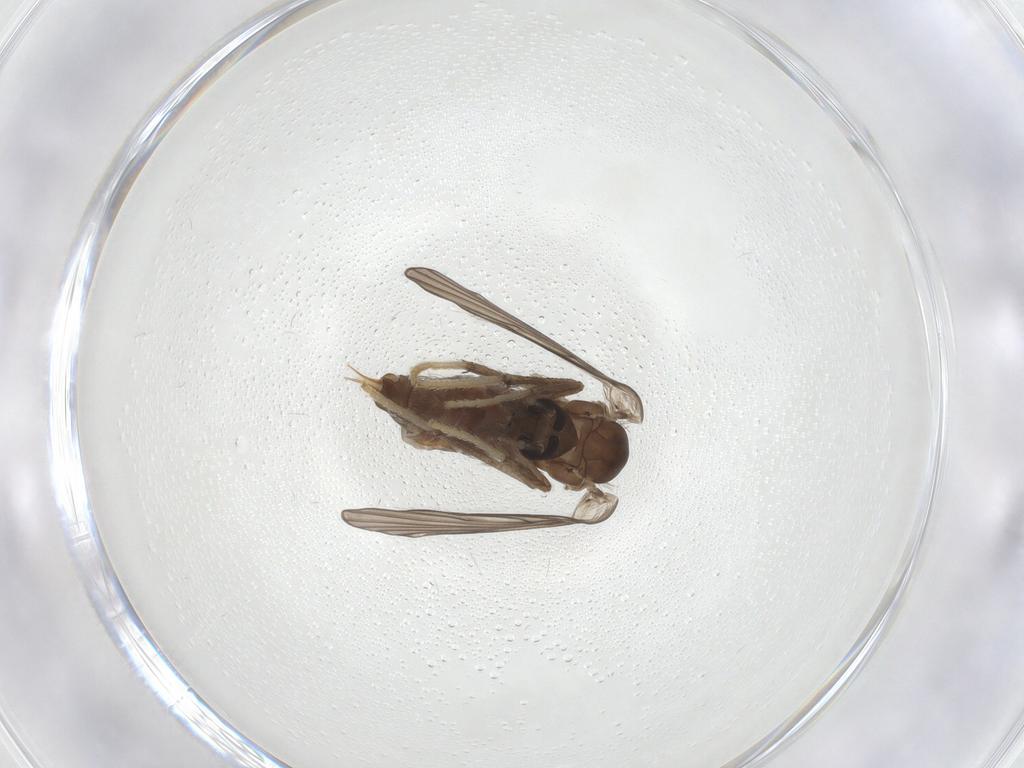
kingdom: Animalia
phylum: Arthropoda
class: Insecta
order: Diptera
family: Psychodidae
